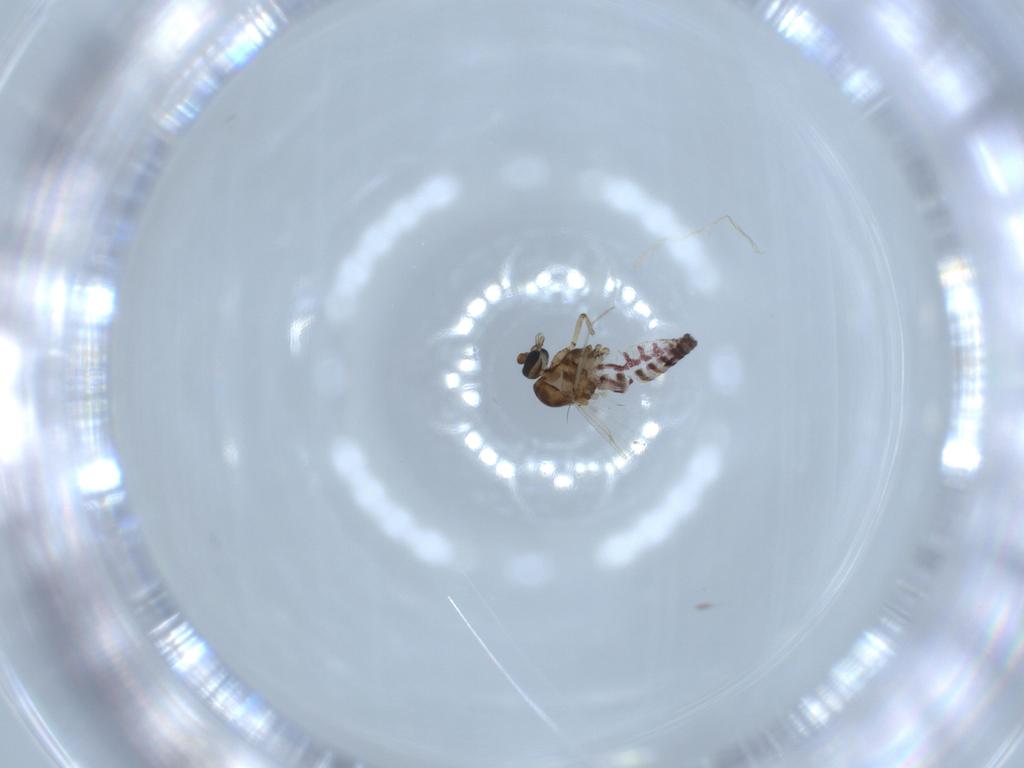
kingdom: Animalia
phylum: Arthropoda
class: Insecta
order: Diptera
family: Ceratopogonidae
